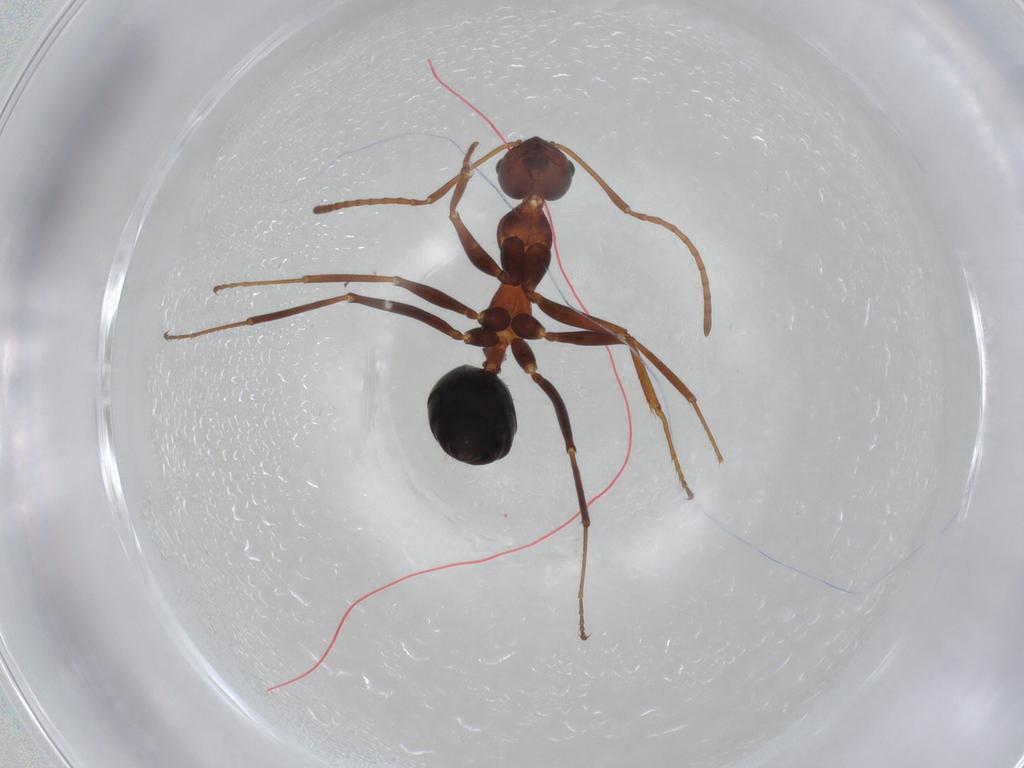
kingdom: Animalia
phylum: Arthropoda
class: Insecta
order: Hymenoptera
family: Formicidae
